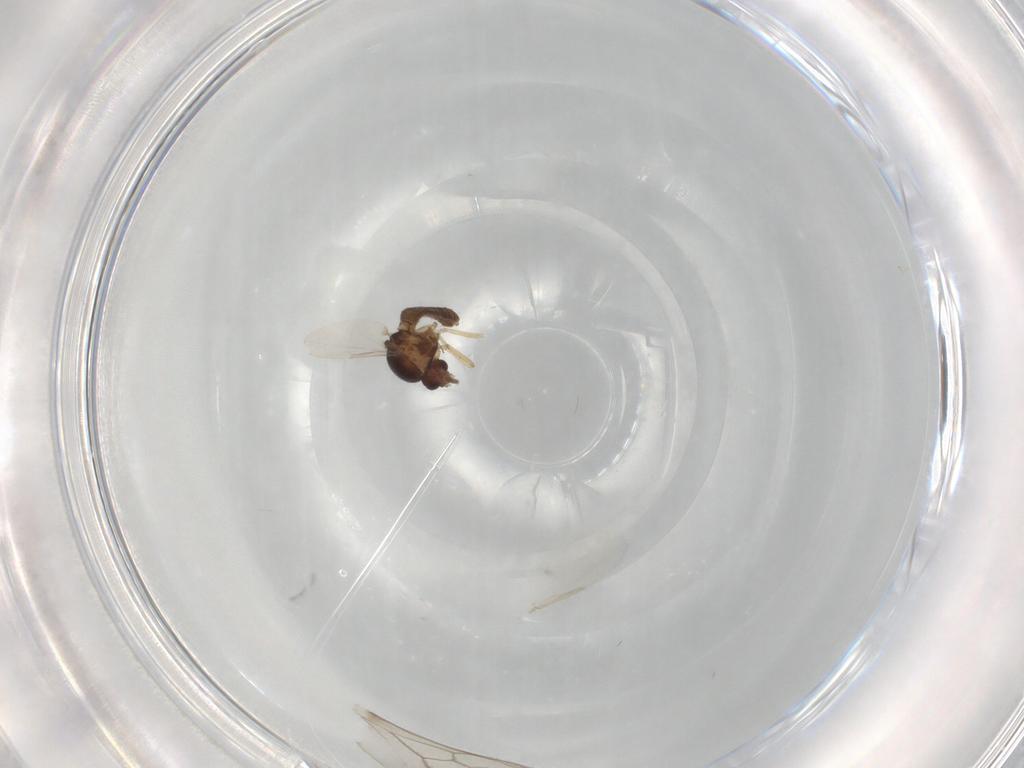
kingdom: Animalia
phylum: Arthropoda
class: Insecta
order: Diptera
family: Ceratopogonidae
